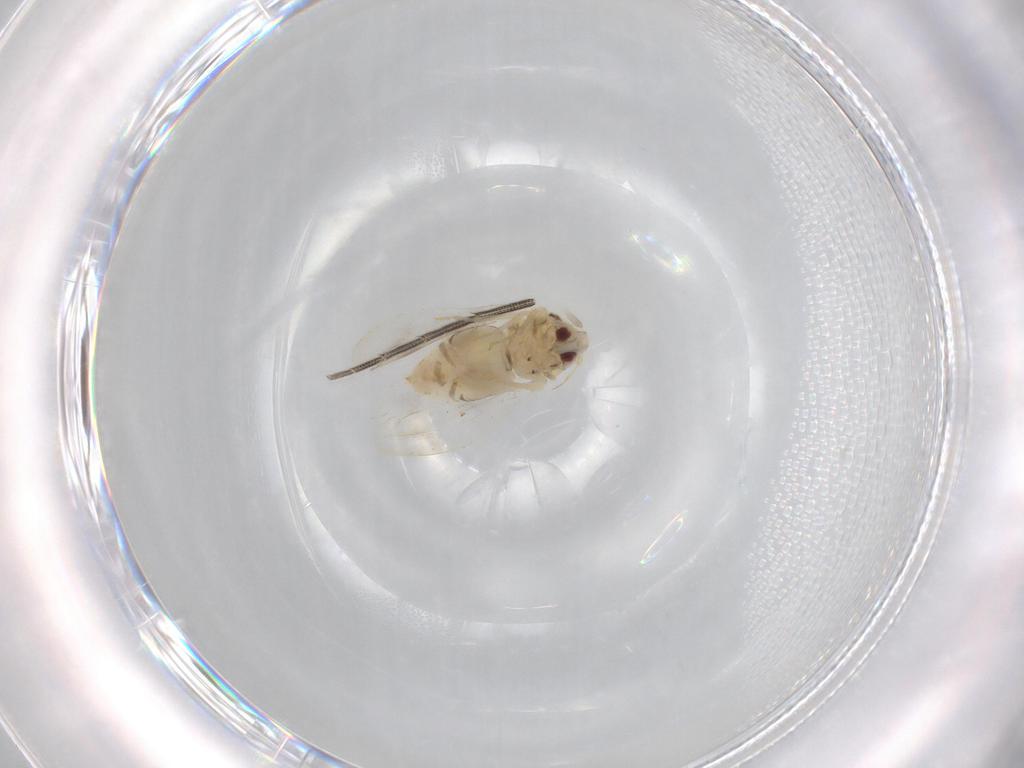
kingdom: Animalia
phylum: Arthropoda
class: Insecta
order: Hemiptera
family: Aleyrodidae
